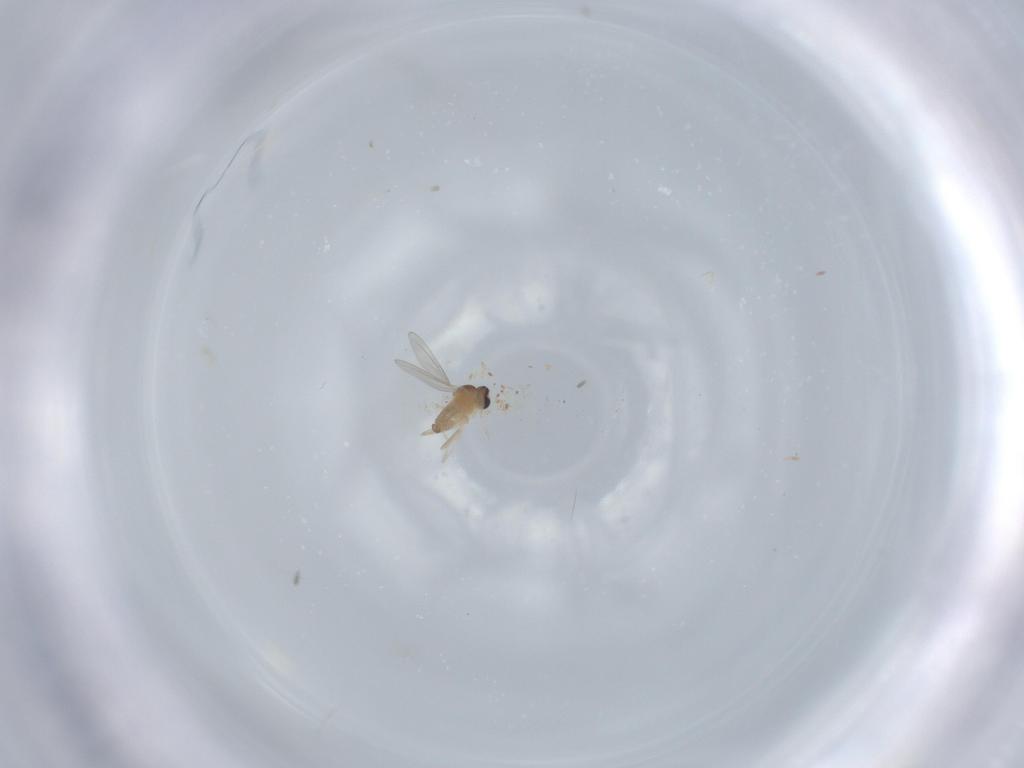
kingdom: Animalia
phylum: Arthropoda
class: Insecta
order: Diptera
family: Cecidomyiidae
